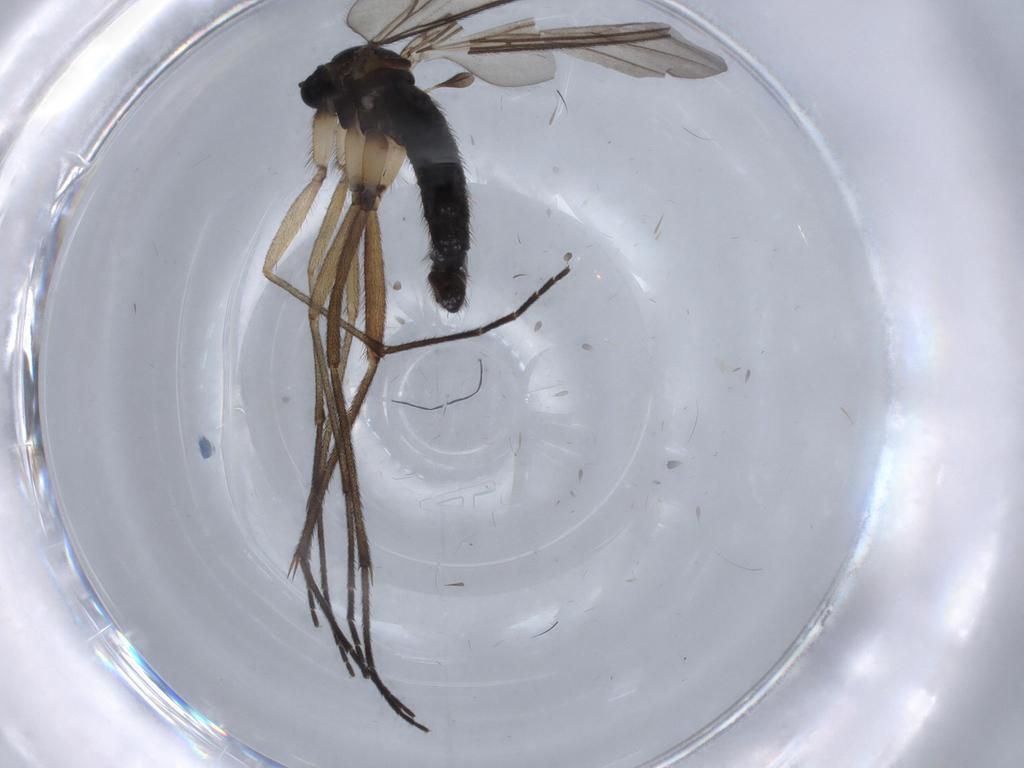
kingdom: Animalia
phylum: Arthropoda
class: Insecta
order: Diptera
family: Sciaridae
